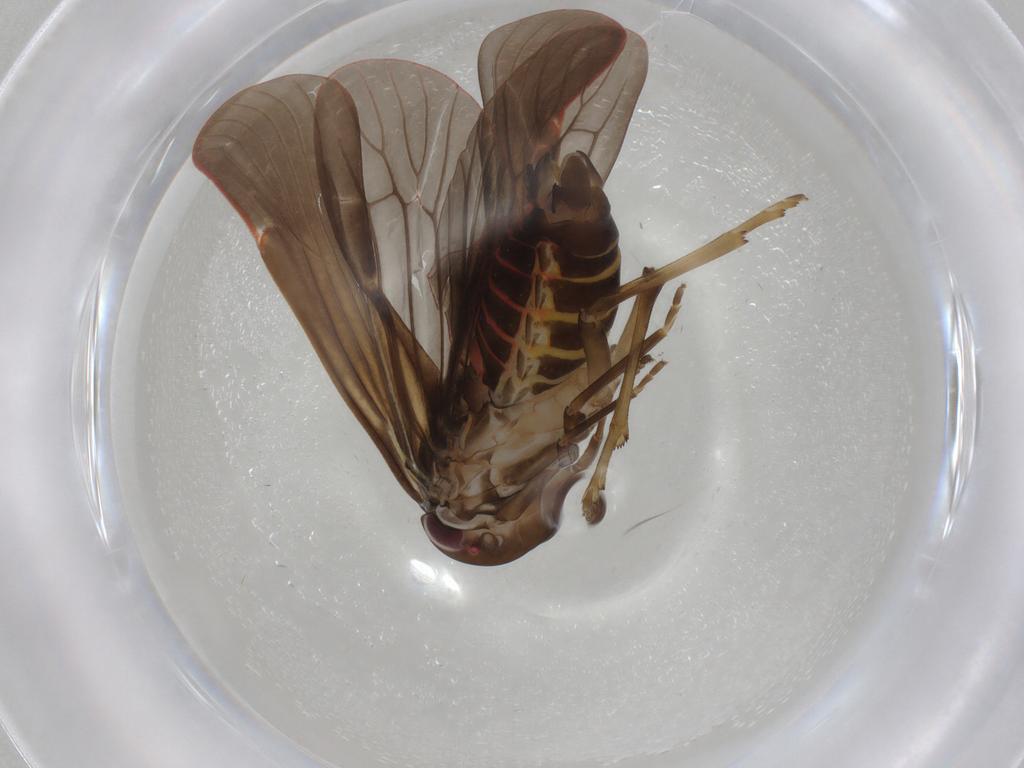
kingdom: Animalia
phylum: Arthropoda
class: Insecta
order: Hemiptera
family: Achilidae
